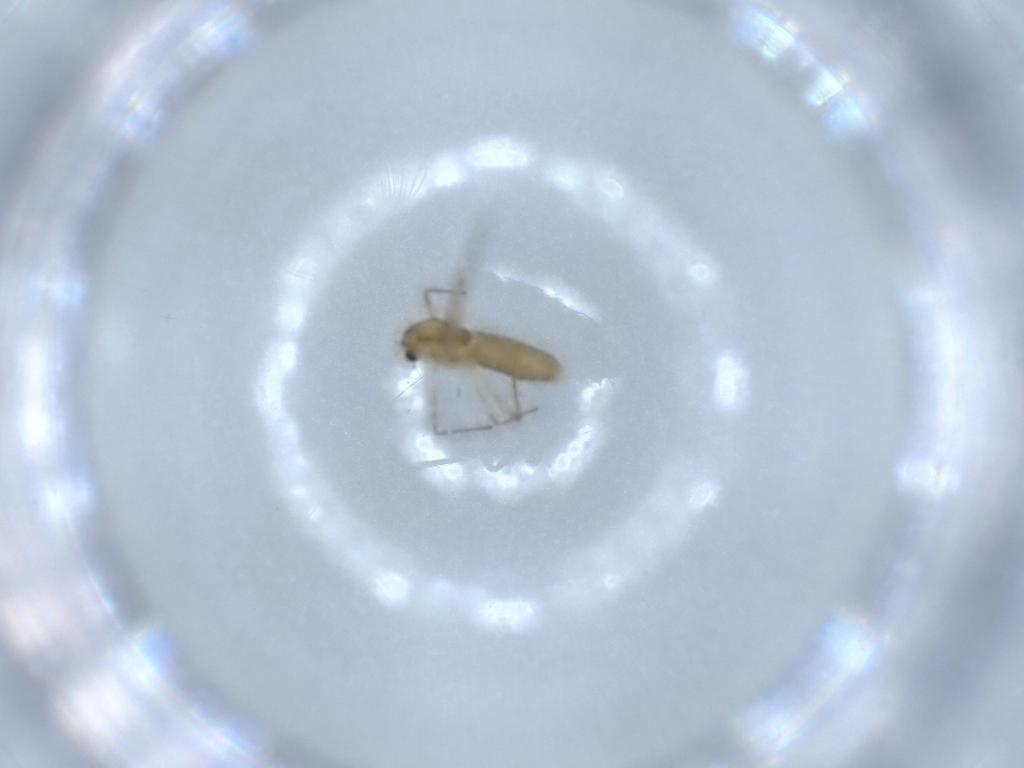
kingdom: Animalia
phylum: Arthropoda
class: Insecta
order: Diptera
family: Chironomidae
